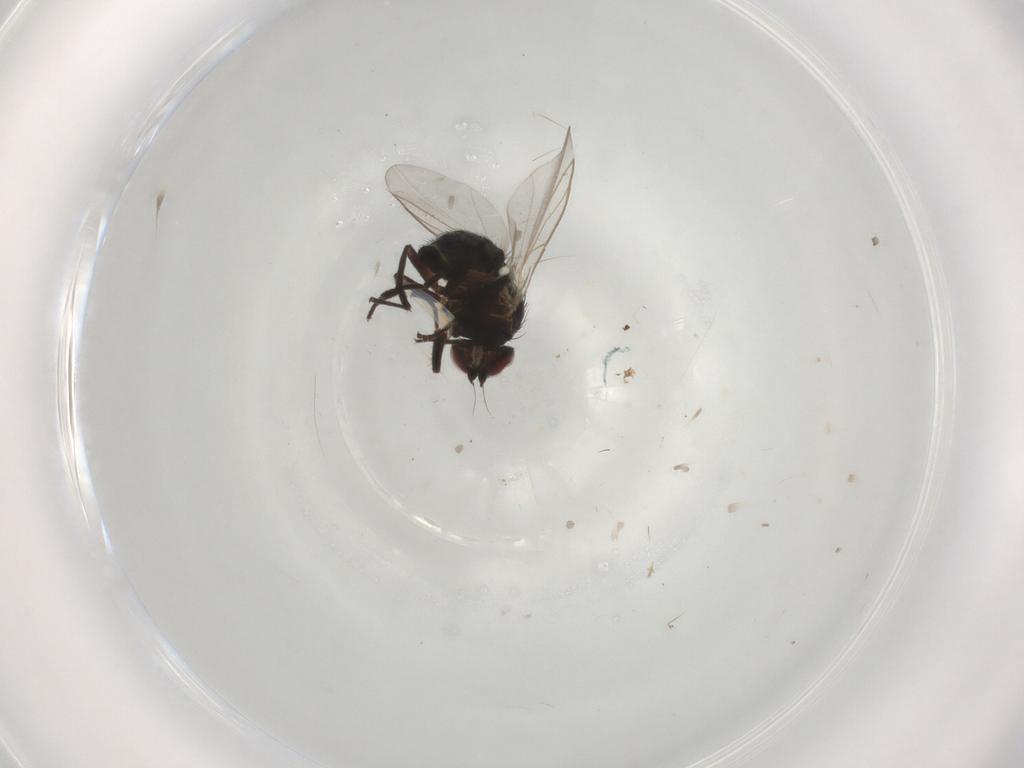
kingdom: Animalia
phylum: Arthropoda
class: Insecta
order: Diptera
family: Agromyzidae
